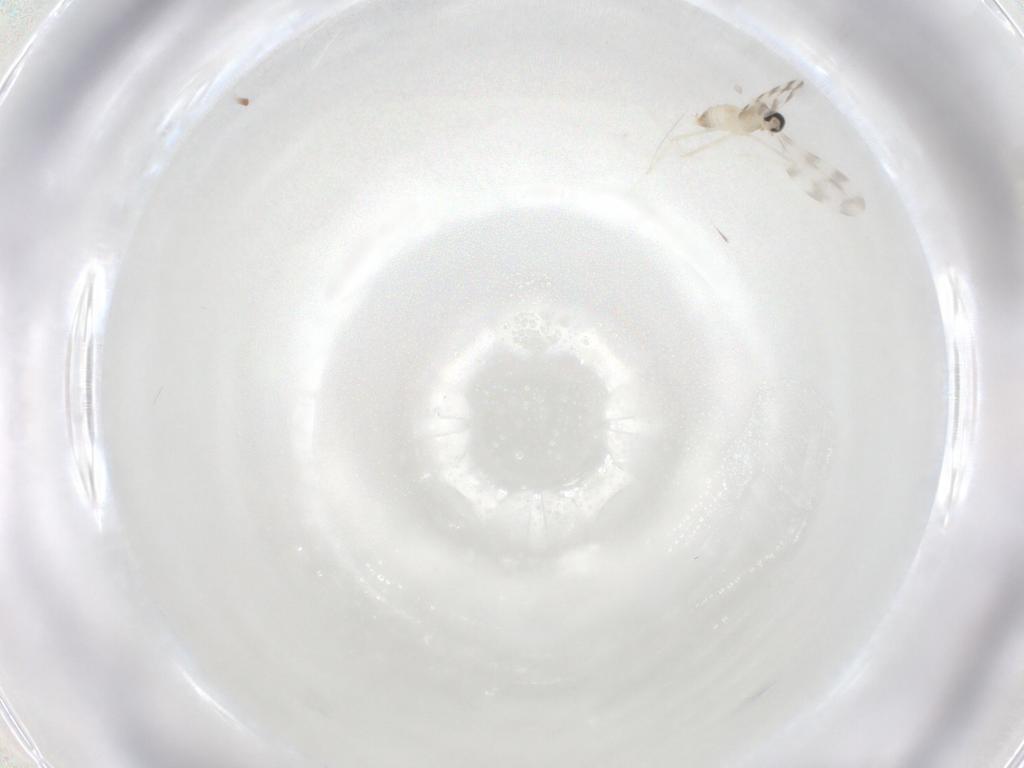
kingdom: Animalia
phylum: Arthropoda
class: Insecta
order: Diptera
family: Cecidomyiidae
